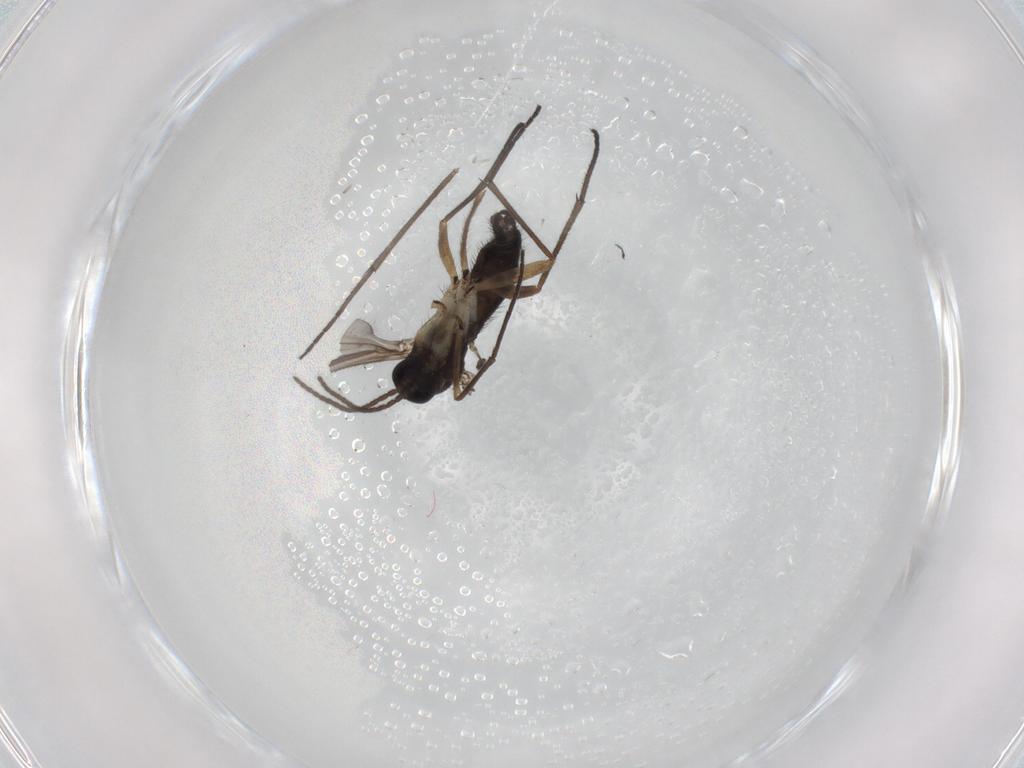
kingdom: Animalia
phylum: Arthropoda
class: Insecta
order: Diptera
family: Sciaridae
